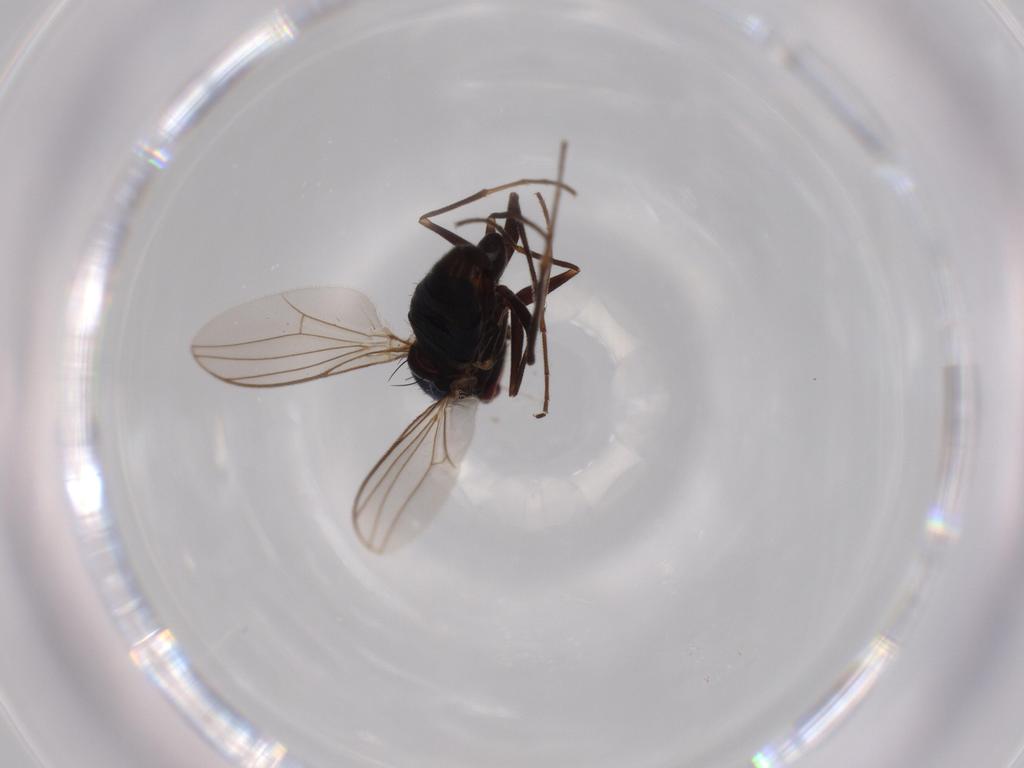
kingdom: Animalia
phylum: Arthropoda
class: Insecta
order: Diptera
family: Dolichopodidae
